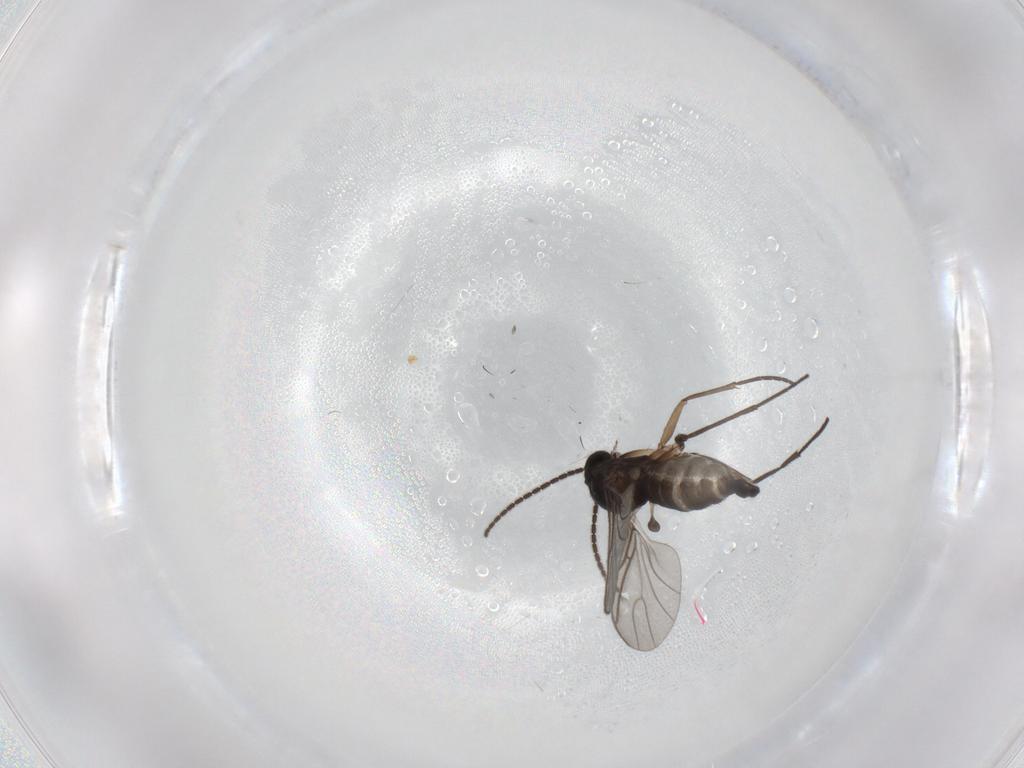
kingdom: Animalia
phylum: Arthropoda
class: Insecta
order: Diptera
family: Sciaridae
